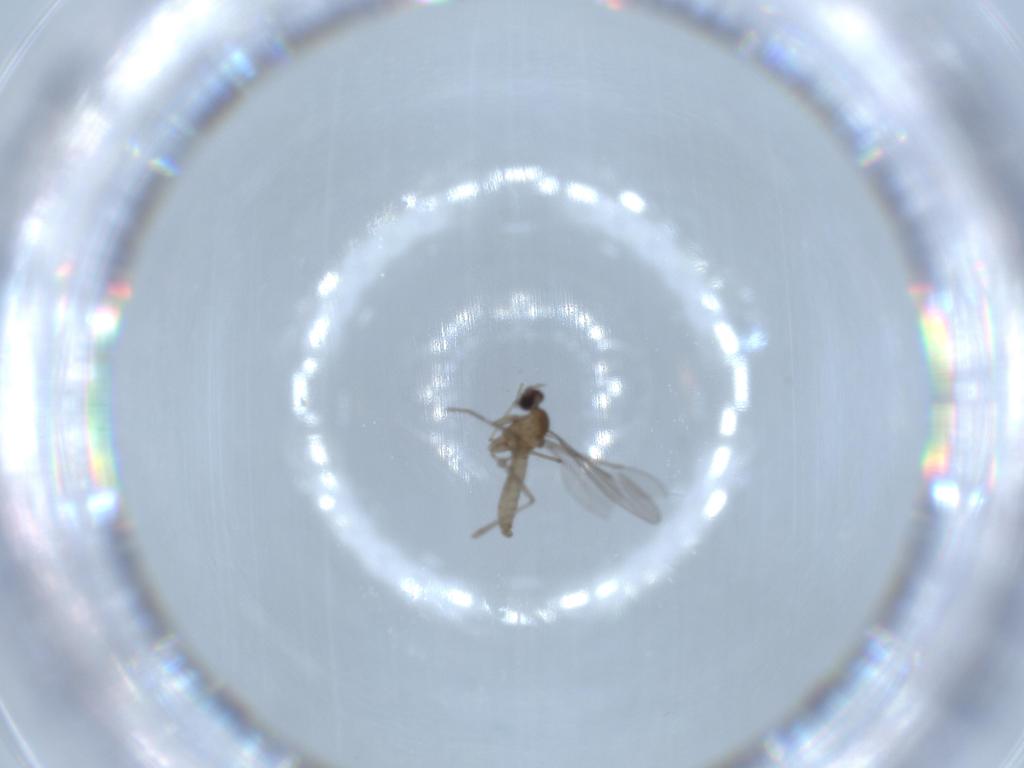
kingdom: Animalia
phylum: Arthropoda
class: Insecta
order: Diptera
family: Cecidomyiidae
